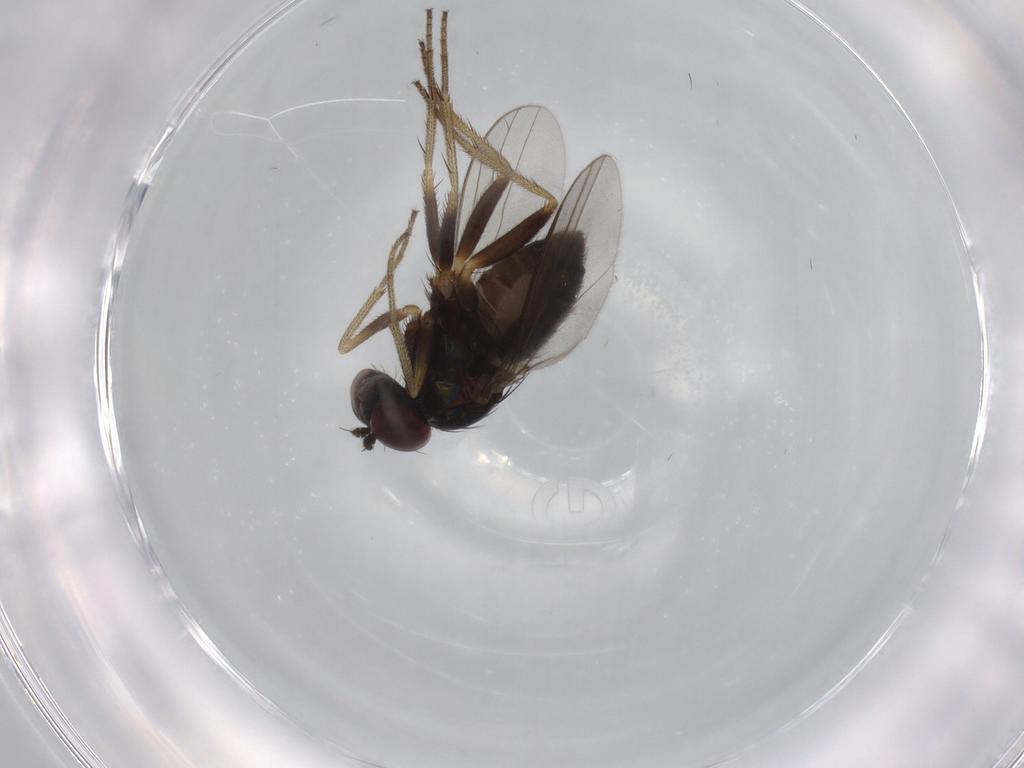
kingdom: Animalia
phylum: Arthropoda
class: Insecta
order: Diptera
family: Dolichopodidae
